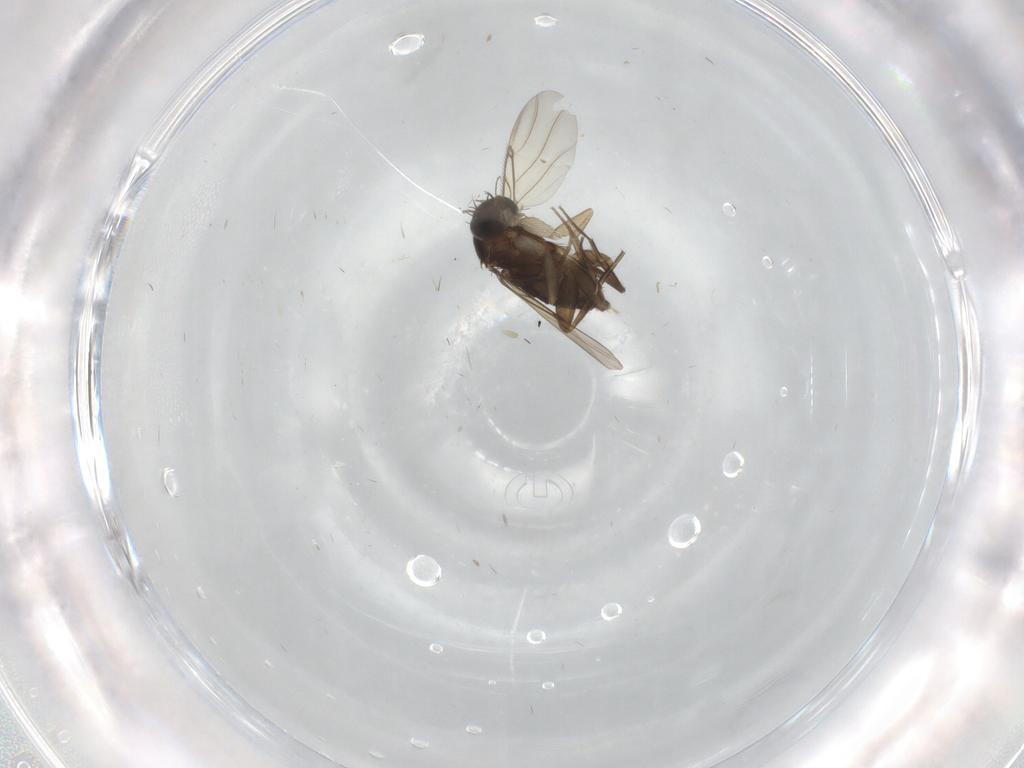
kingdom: Animalia
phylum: Arthropoda
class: Insecta
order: Diptera
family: Phoridae
